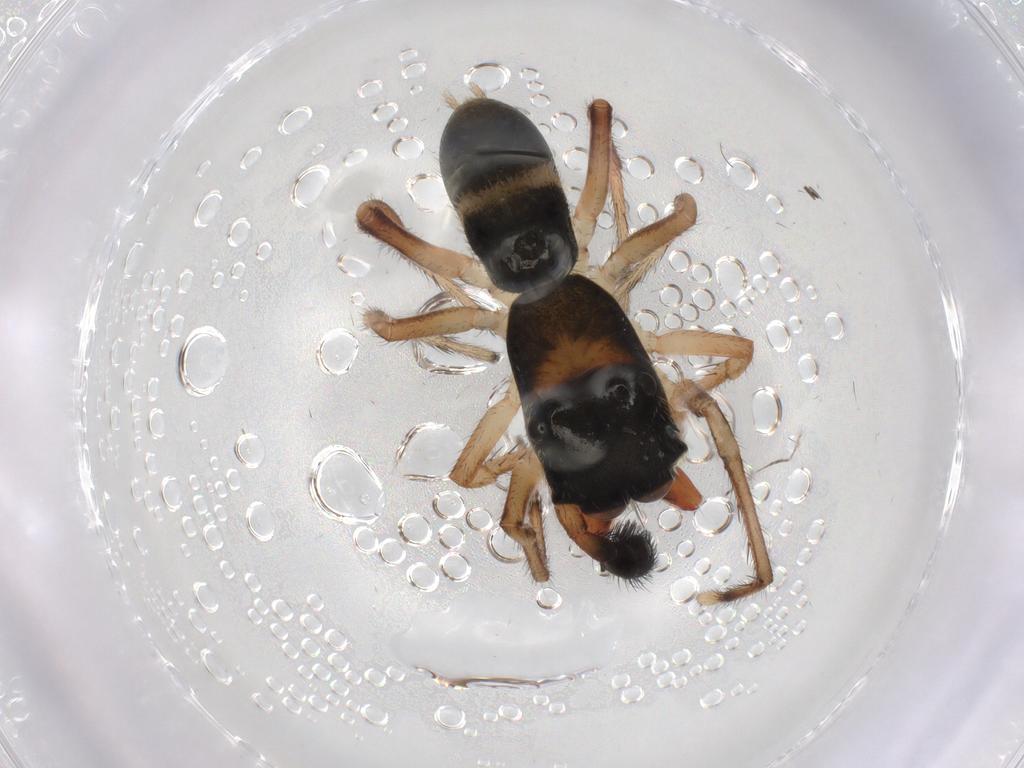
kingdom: Animalia
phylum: Arthropoda
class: Arachnida
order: Araneae
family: Salticidae
